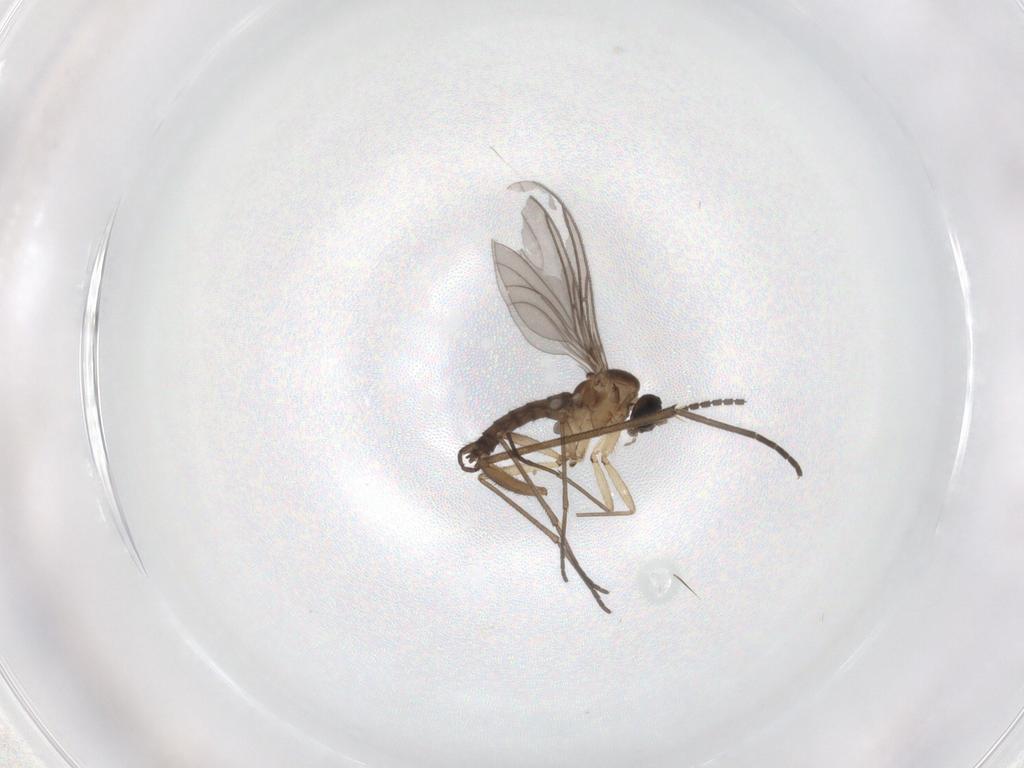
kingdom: Animalia
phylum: Arthropoda
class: Insecta
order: Diptera
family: Sciaridae
